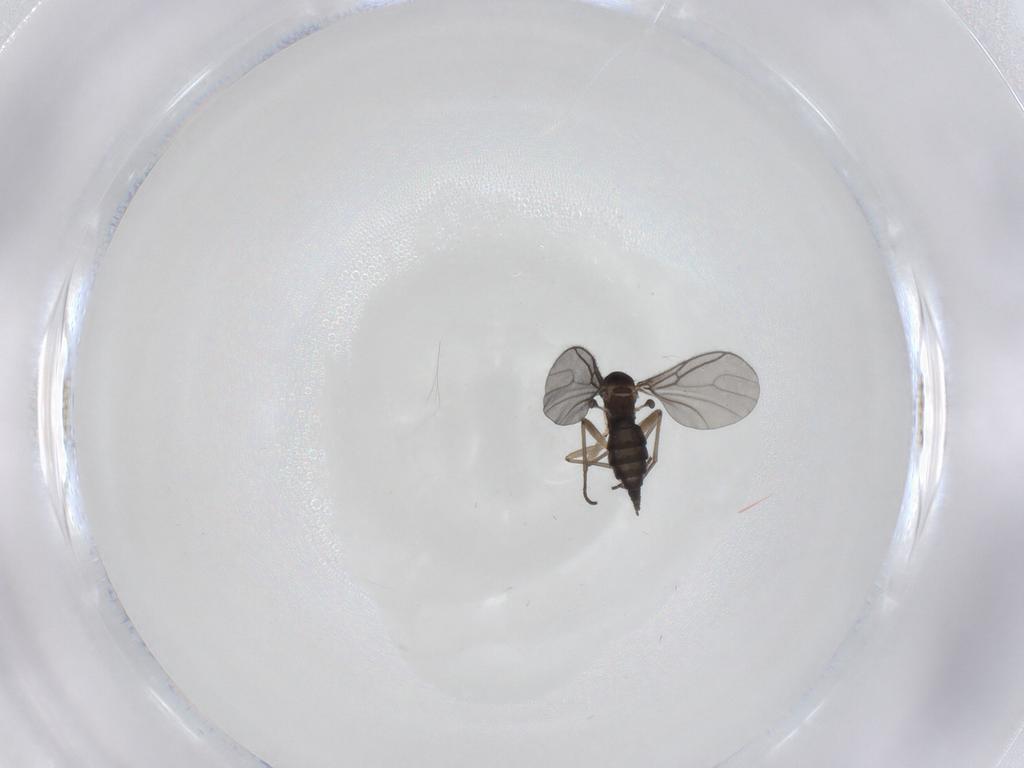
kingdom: Animalia
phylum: Arthropoda
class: Insecta
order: Diptera
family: Sciaridae
